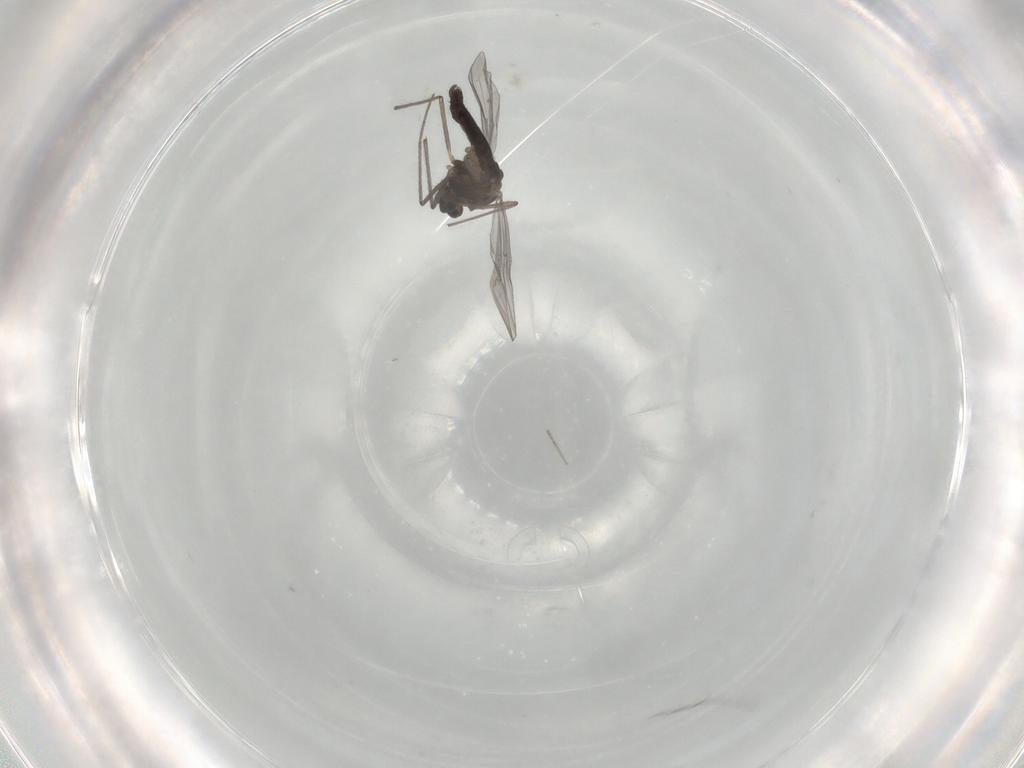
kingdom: Animalia
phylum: Arthropoda
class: Insecta
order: Diptera
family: Chironomidae
